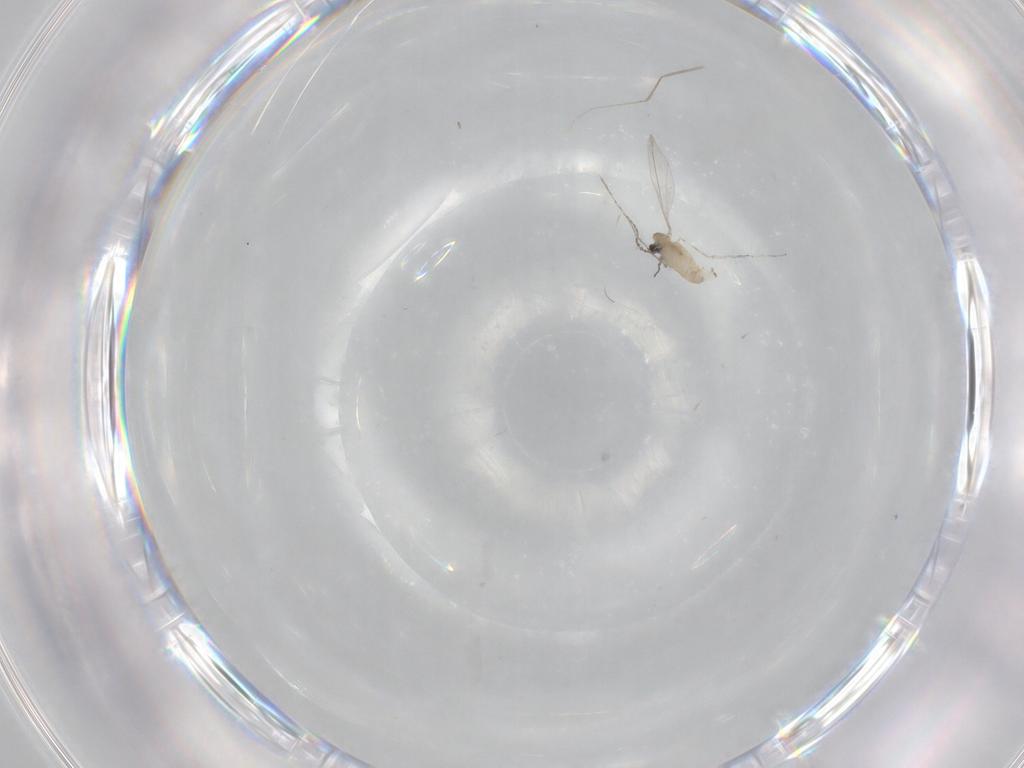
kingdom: Animalia
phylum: Arthropoda
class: Insecta
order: Diptera
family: Cecidomyiidae
